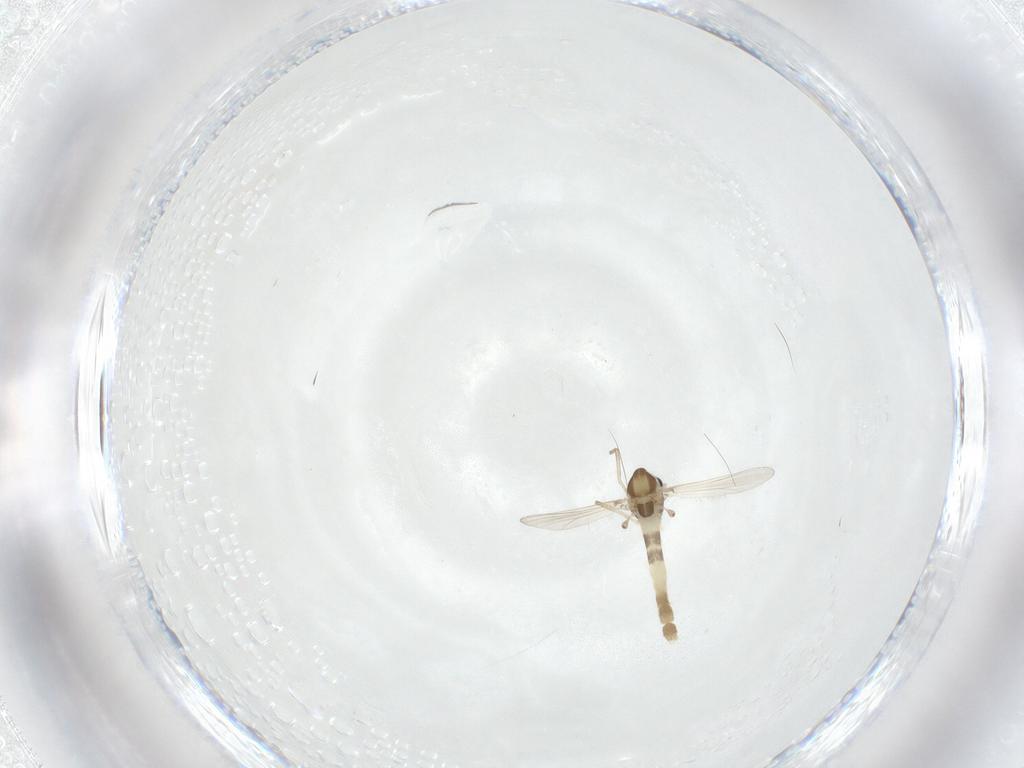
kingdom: Animalia
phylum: Arthropoda
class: Insecta
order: Diptera
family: Chironomidae
